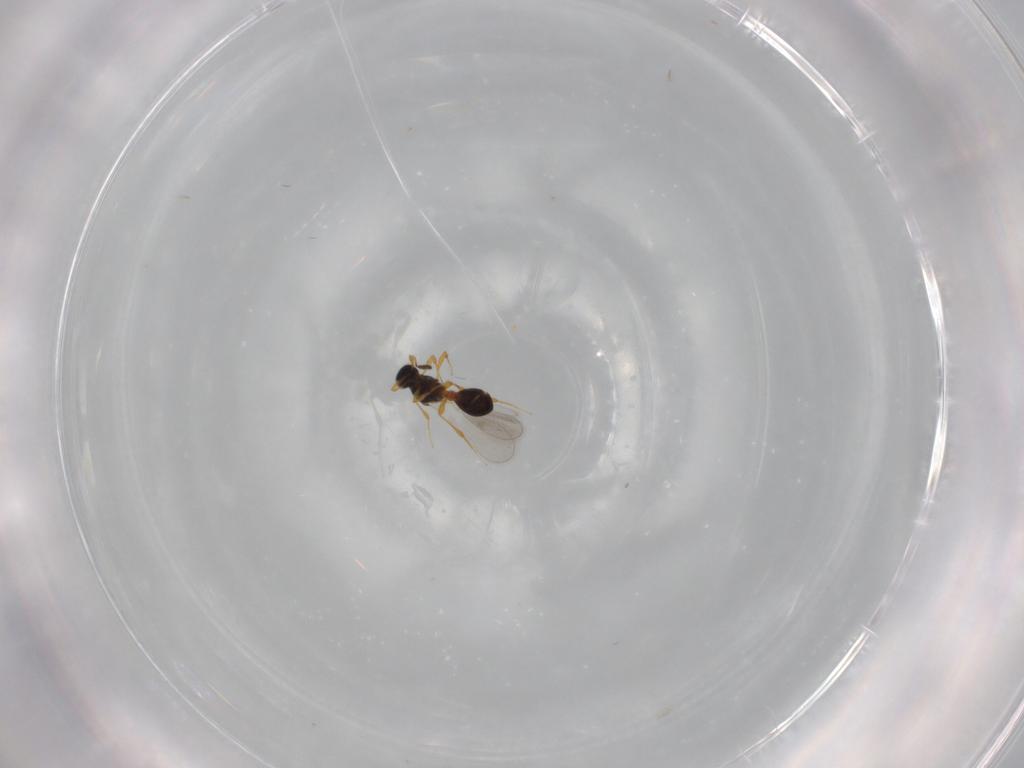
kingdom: Animalia
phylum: Arthropoda
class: Insecta
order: Hymenoptera
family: Platygastridae
